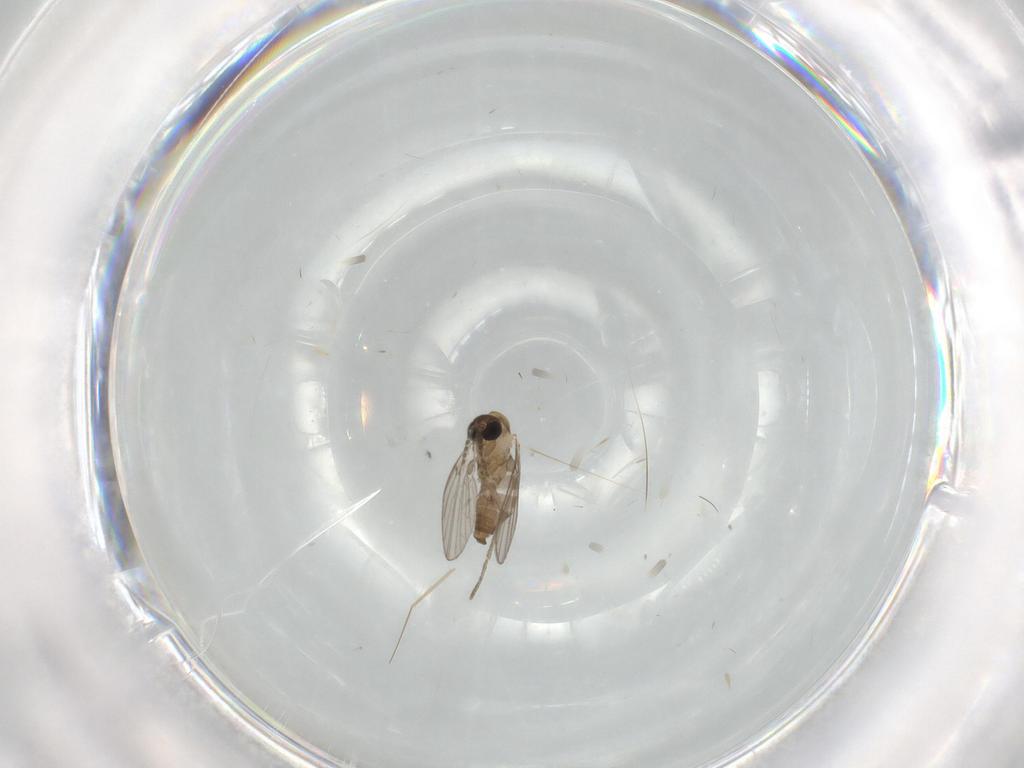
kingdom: Animalia
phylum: Arthropoda
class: Insecta
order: Diptera
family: Psychodidae
